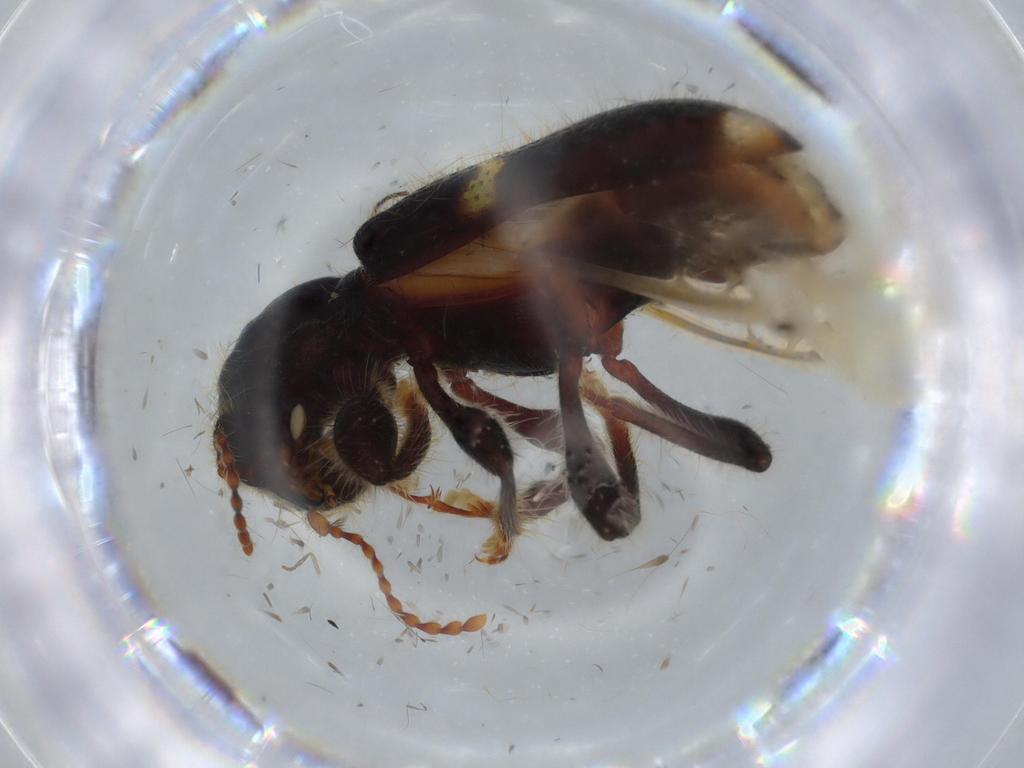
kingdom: Animalia
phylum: Arthropoda
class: Insecta
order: Coleoptera
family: Cleridae
